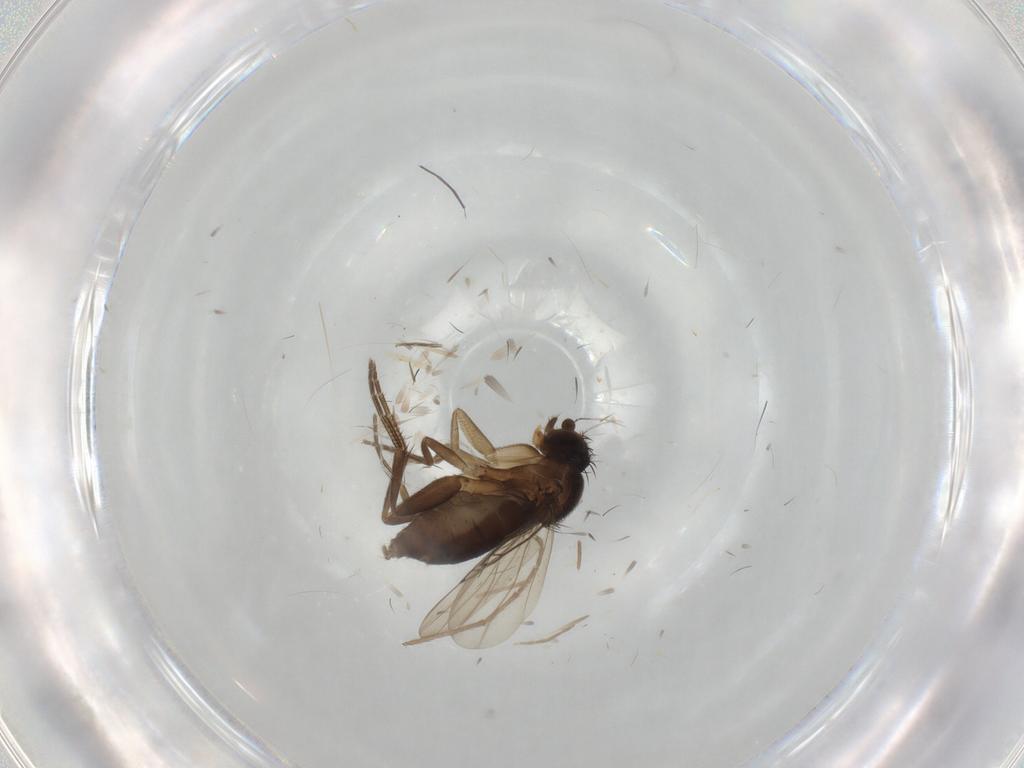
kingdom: Animalia
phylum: Arthropoda
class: Insecta
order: Diptera
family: Phoridae
